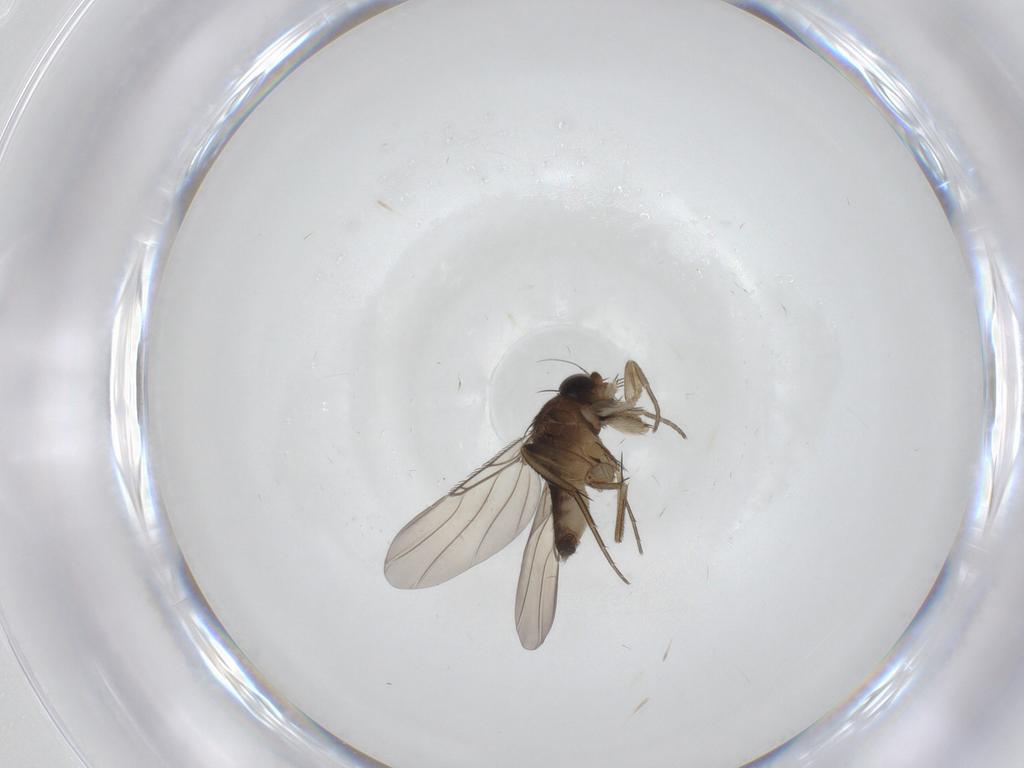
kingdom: Animalia
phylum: Arthropoda
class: Insecta
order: Diptera
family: Phoridae
